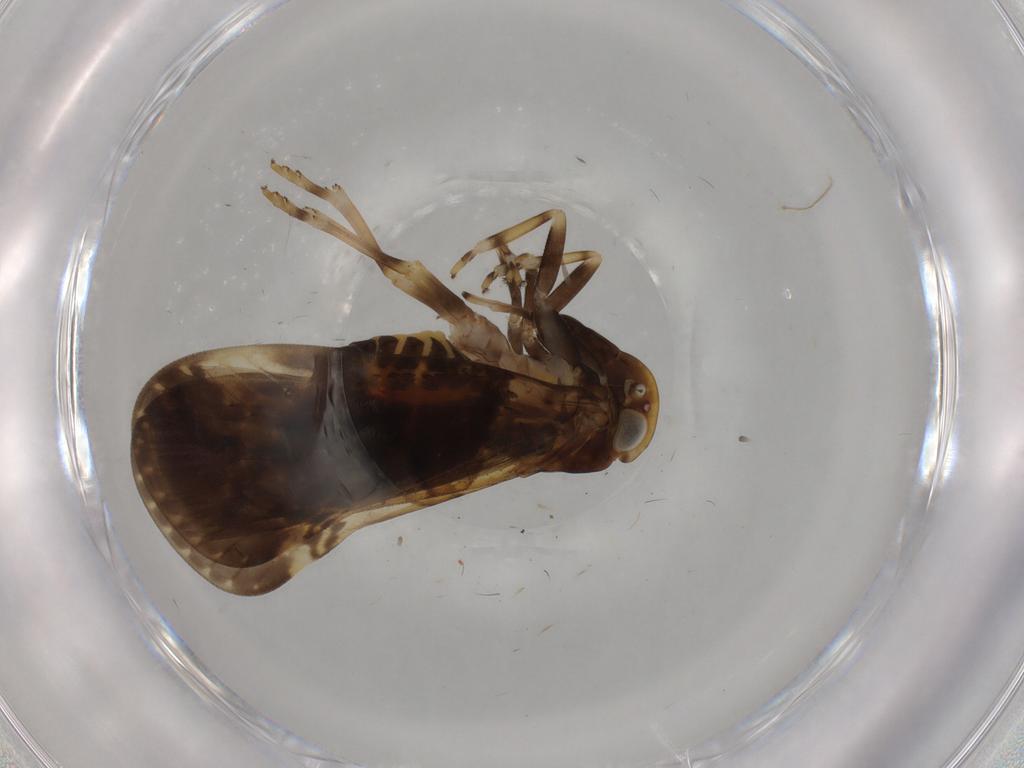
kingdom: Animalia
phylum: Arthropoda
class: Insecta
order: Hemiptera
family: Cixiidae
